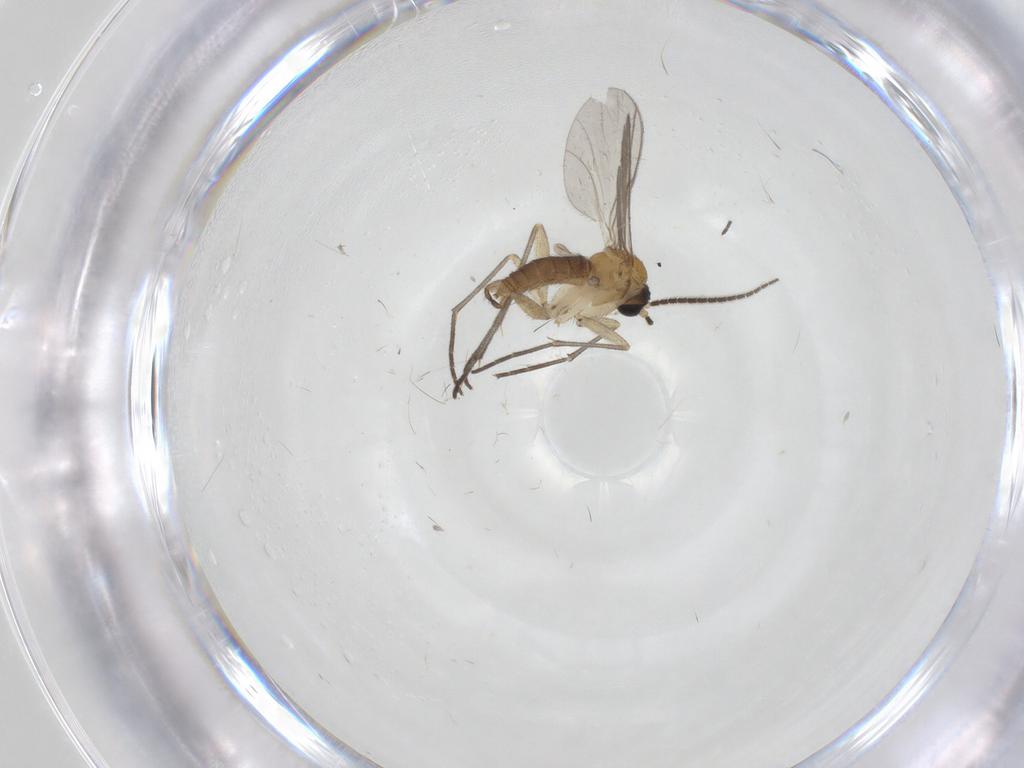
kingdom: Animalia
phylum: Arthropoda
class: Insecta
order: Diptera
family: Sciaridae
